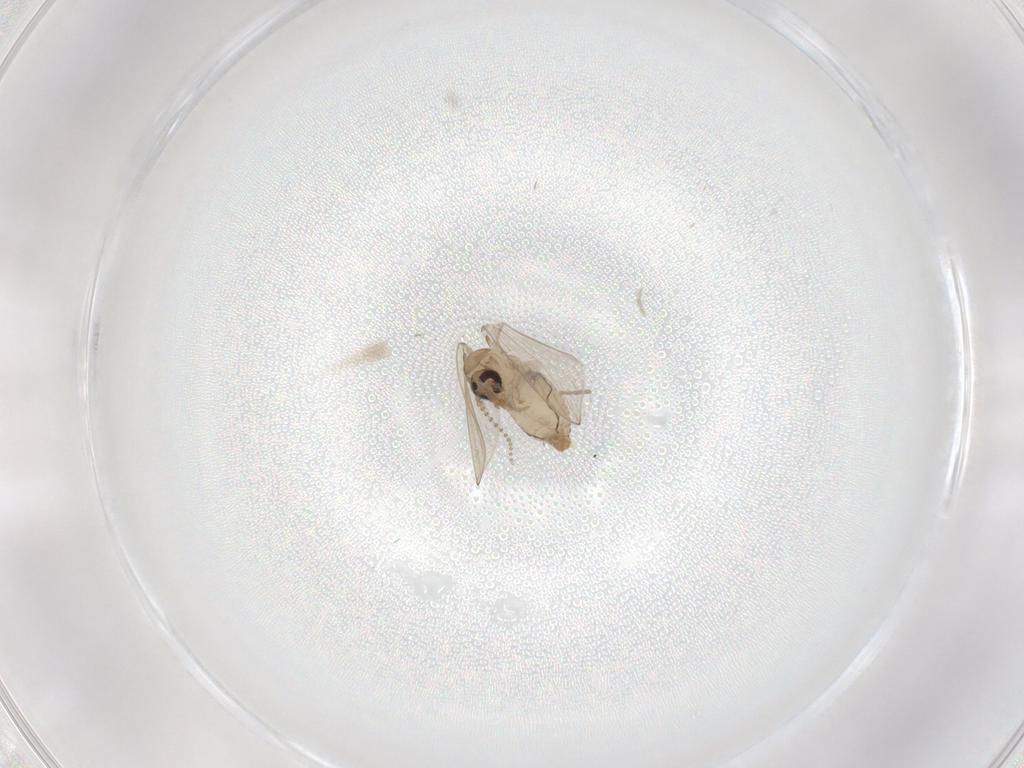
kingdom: Animalia
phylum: Arthropoda
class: Insecta
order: Diptera
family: Psychodidae
